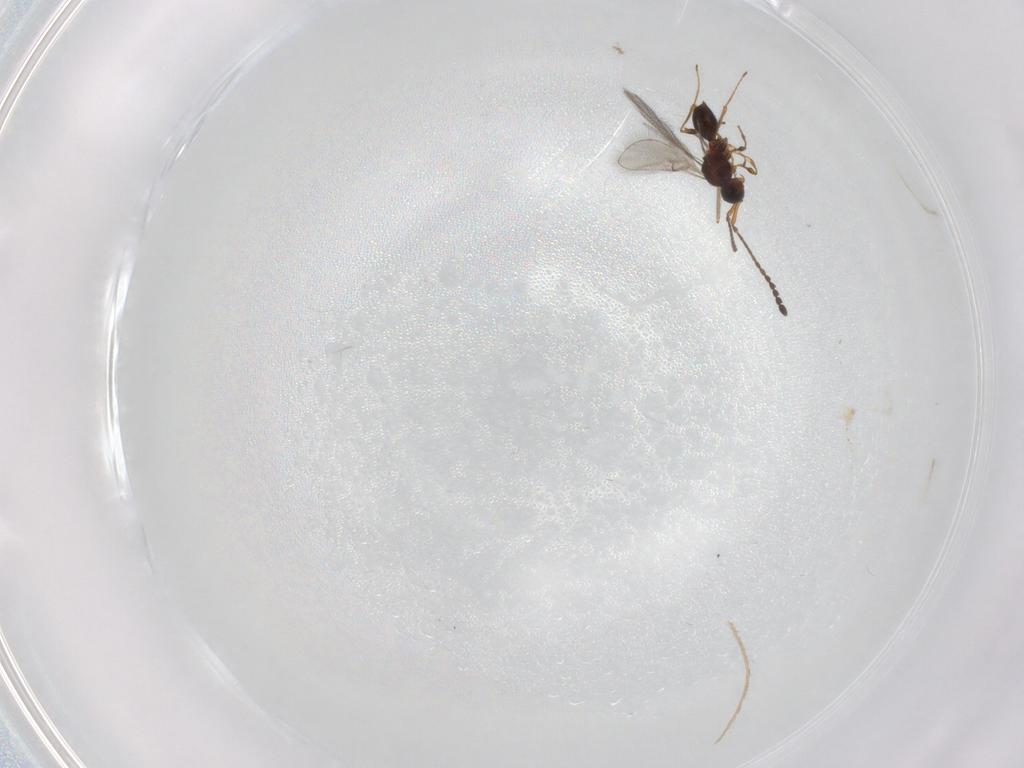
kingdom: Animalia
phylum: Arthropoda
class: Insecta
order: Hymenoptera
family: Diapriidae
